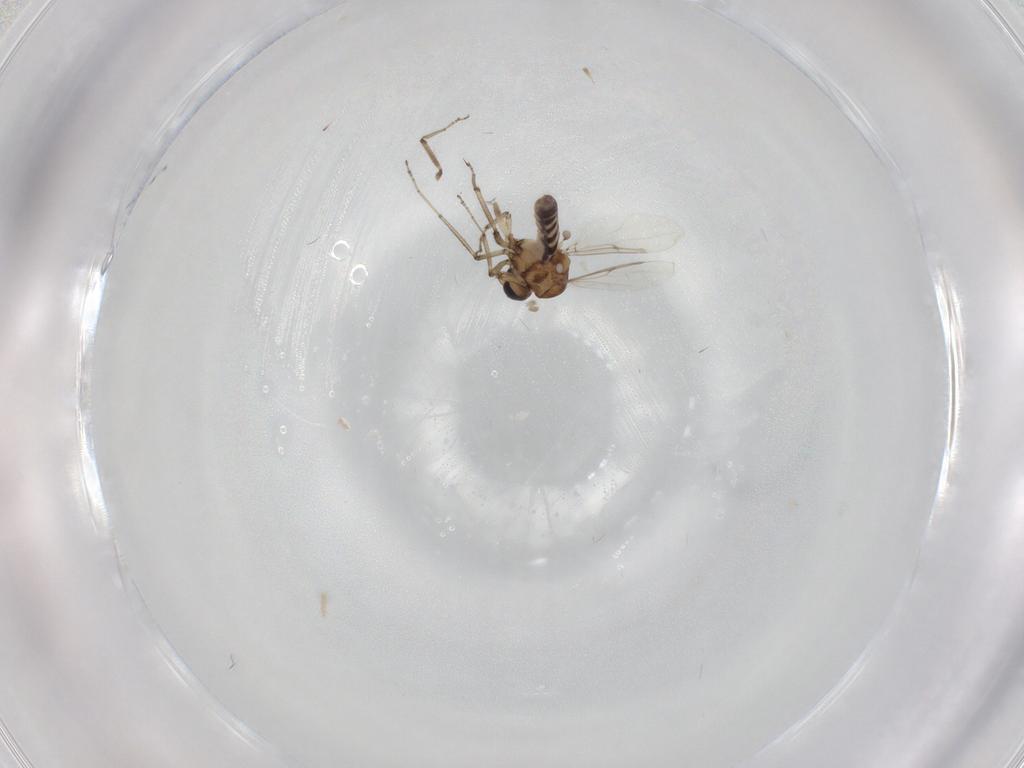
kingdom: Animalia
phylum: Arthropoda
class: Insecta
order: Diptera
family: Ceratopogonidae
